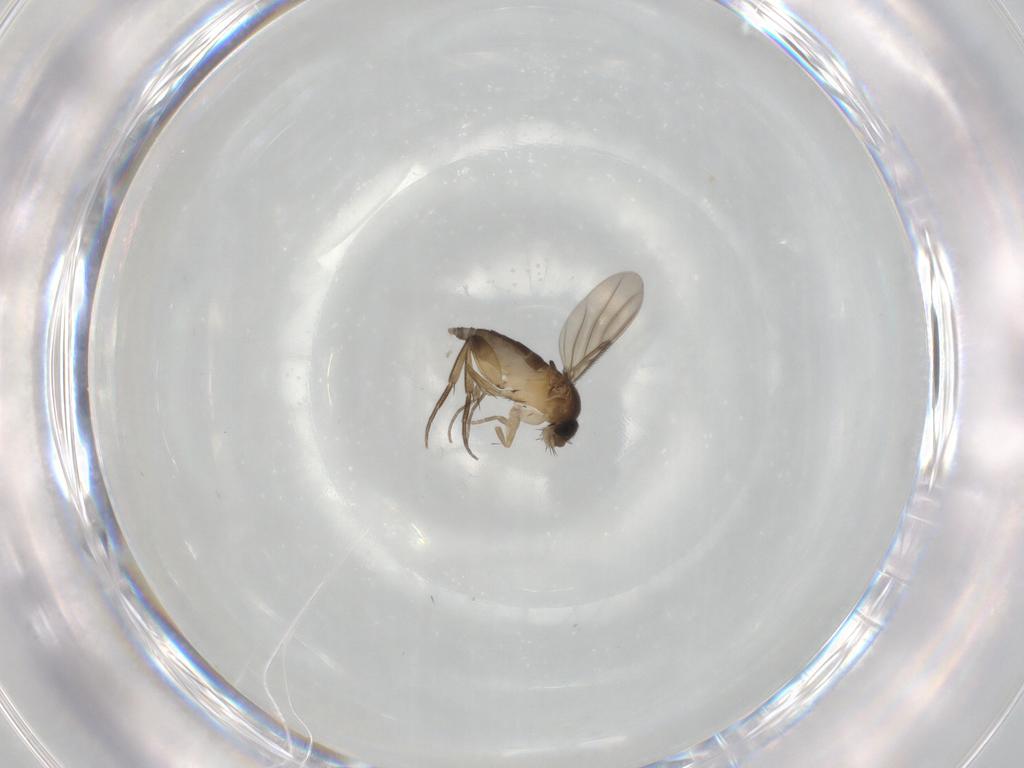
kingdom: Animalia
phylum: Arthropoda
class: Insecta
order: Diptera
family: Phoridae
